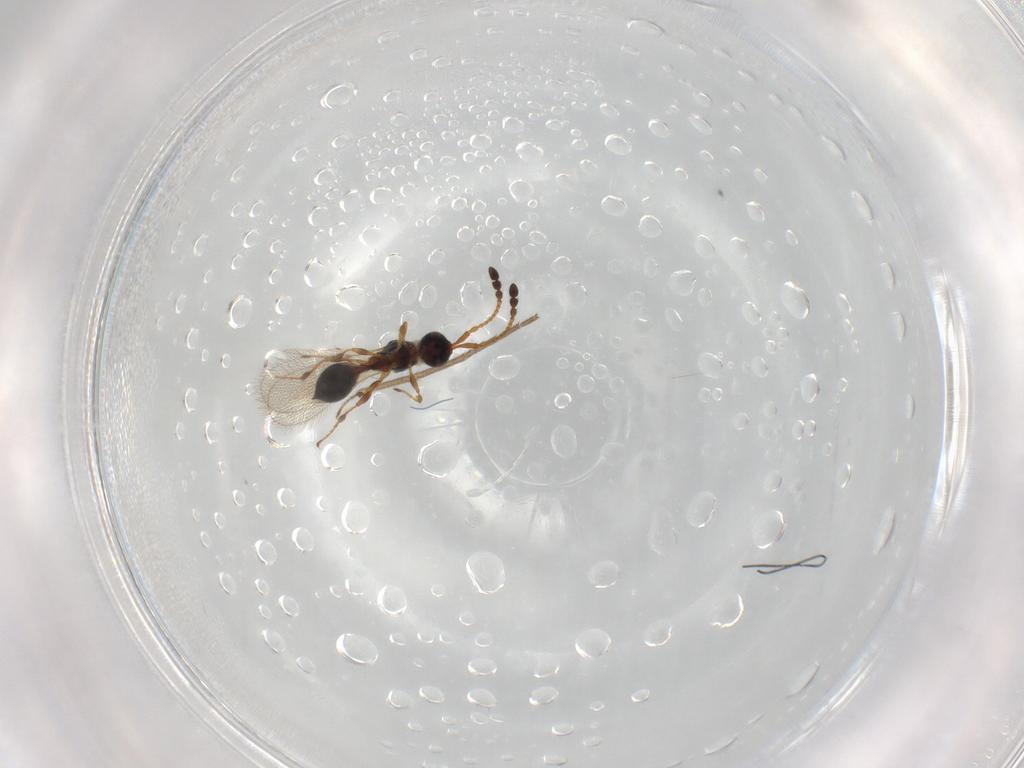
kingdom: Animalia
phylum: Arthropoda
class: Insecta
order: Hymenoptera
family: Diapriidae
